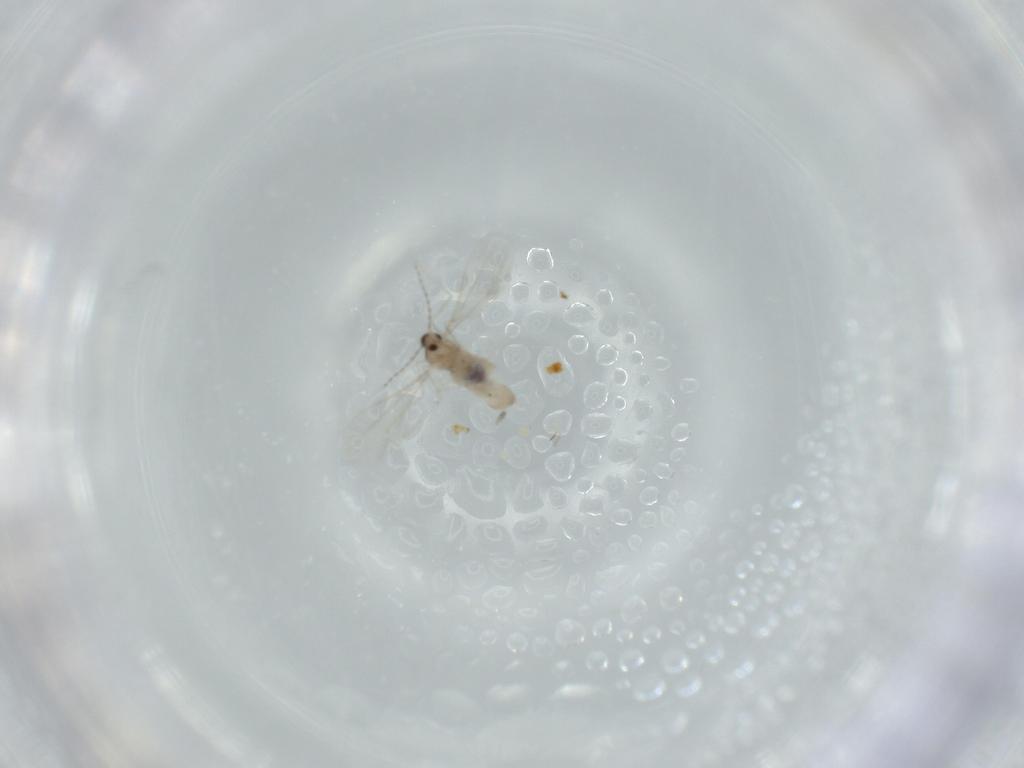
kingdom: Animalia
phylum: Arthropoda
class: Insecta
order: Diptera
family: Cecidomyiidae
